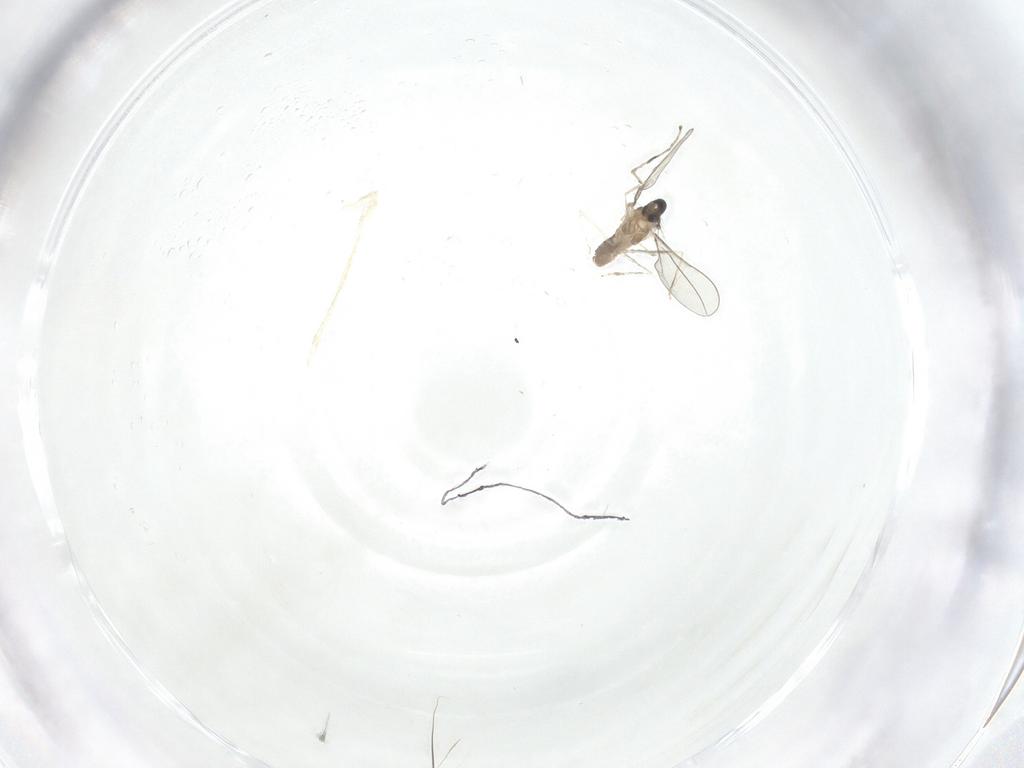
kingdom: Animalia
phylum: Arthropoda
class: Insecta
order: Diptera
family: Cecidomyiidae
